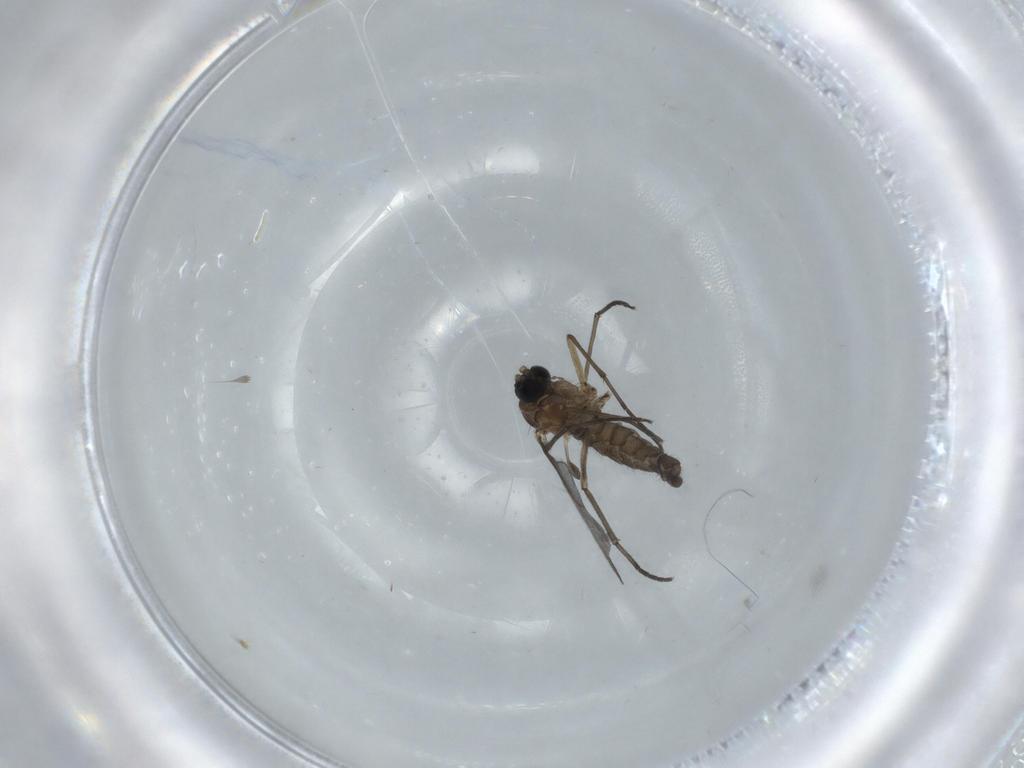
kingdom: Animalia
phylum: Arthropoda
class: Insecta
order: Diptera
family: Sciaridae
